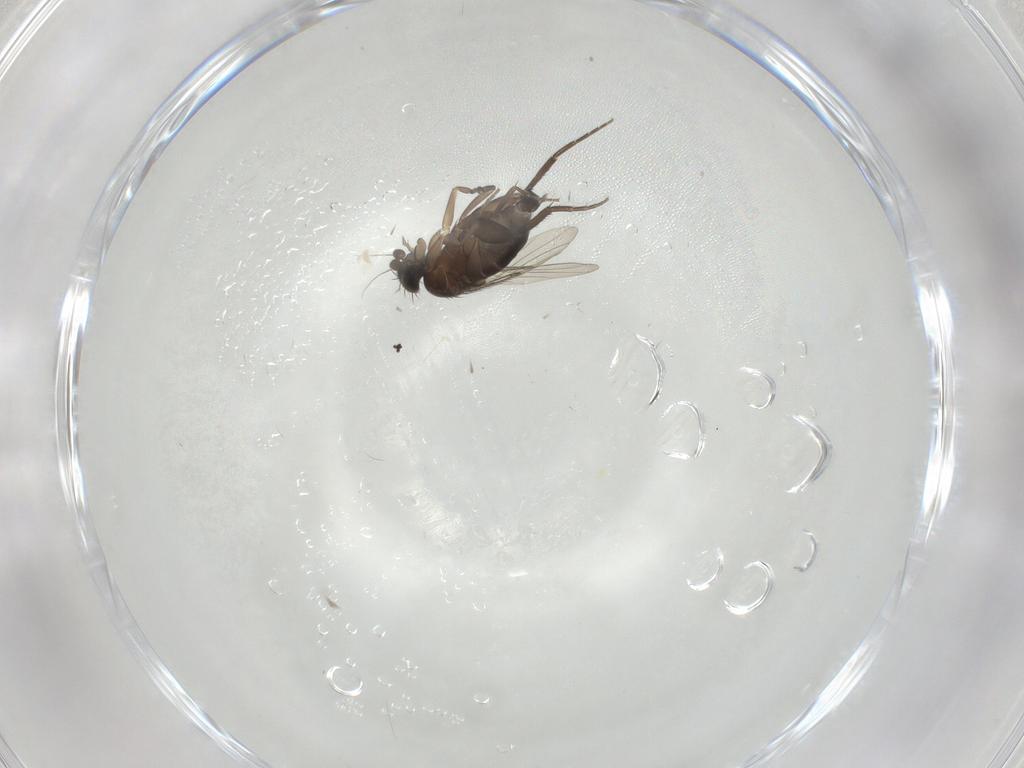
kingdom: Animalia
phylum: Arthropoda
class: Insecta
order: Diptera
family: Phoridae
